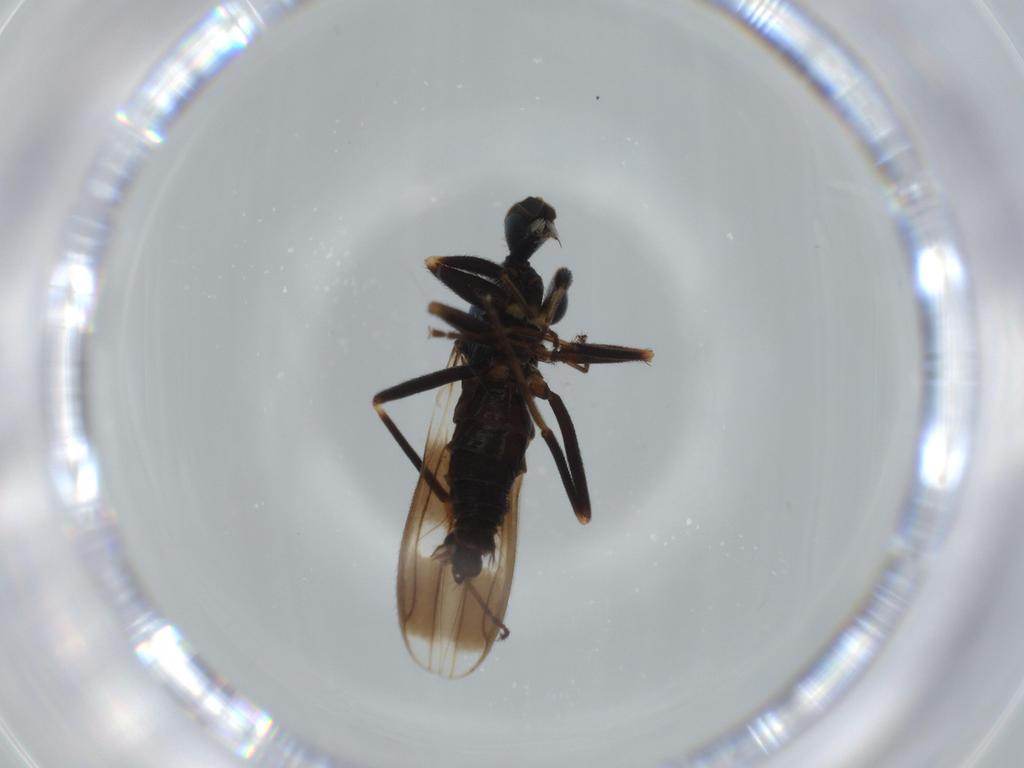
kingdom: Animalia
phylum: Arthropoda
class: Insecta
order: Diptera
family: Hybotidae
